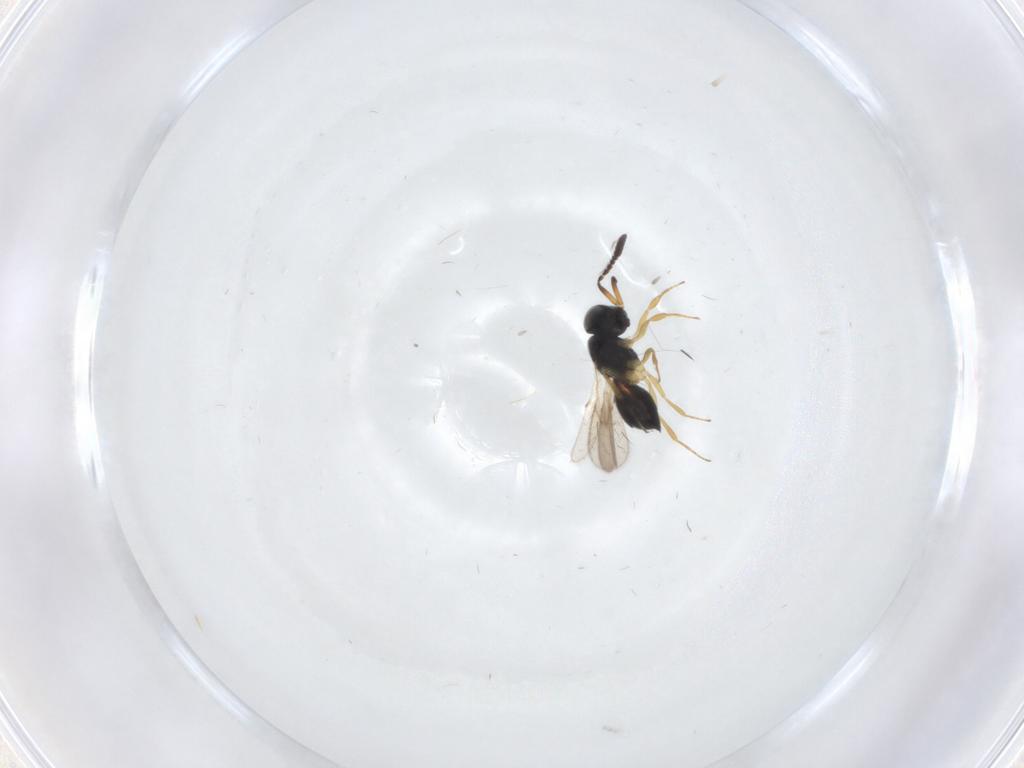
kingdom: Animalia
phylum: Arthropoda
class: Insecta
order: Hymenoptera
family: Scelionidae
